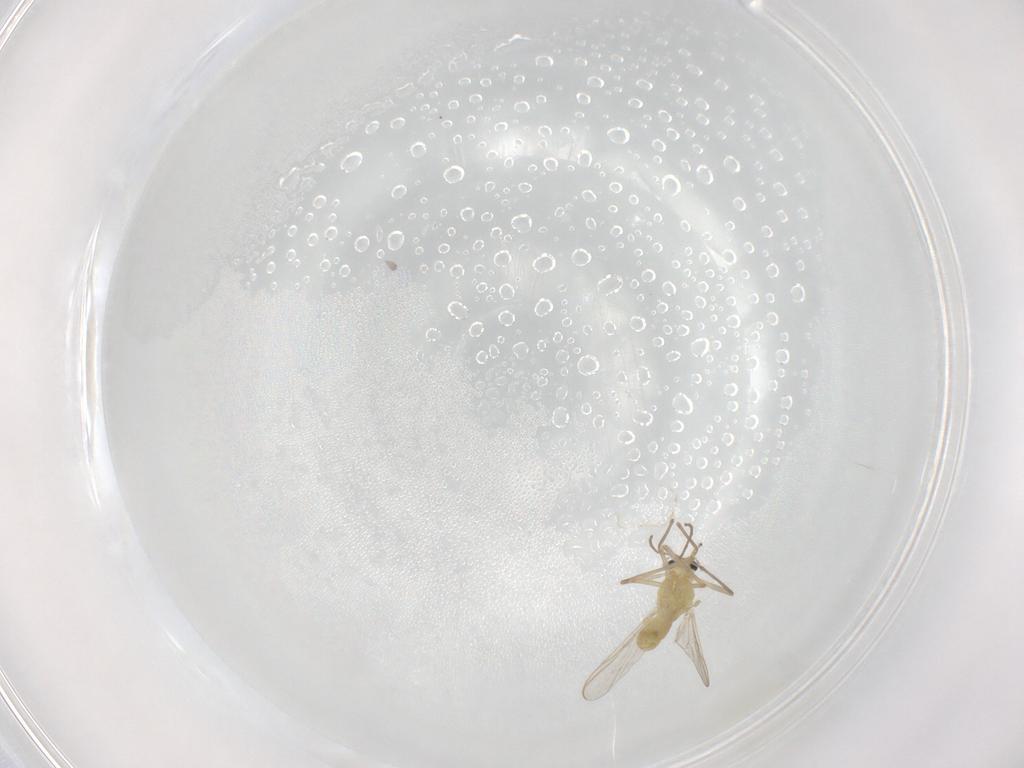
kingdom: Animalia
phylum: Arthropoda
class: Insecta
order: Diptera
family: Chironomidae
